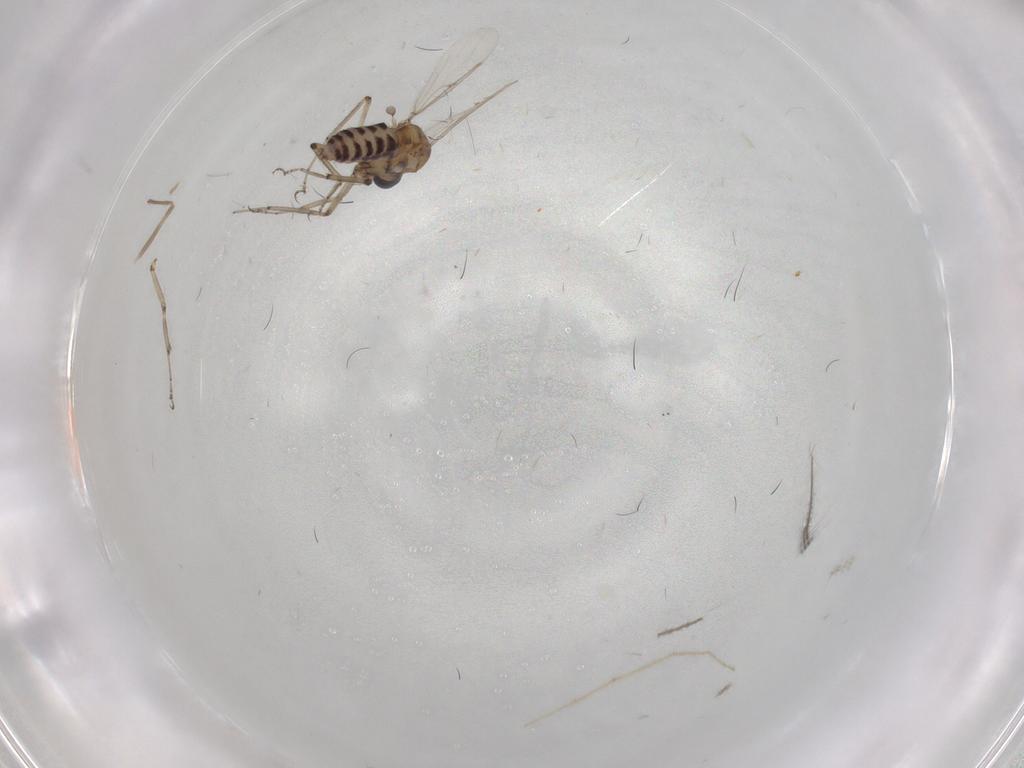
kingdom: Animalia
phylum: Arthropoda
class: Insecta
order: Diptera
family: Ceratopogonidae
